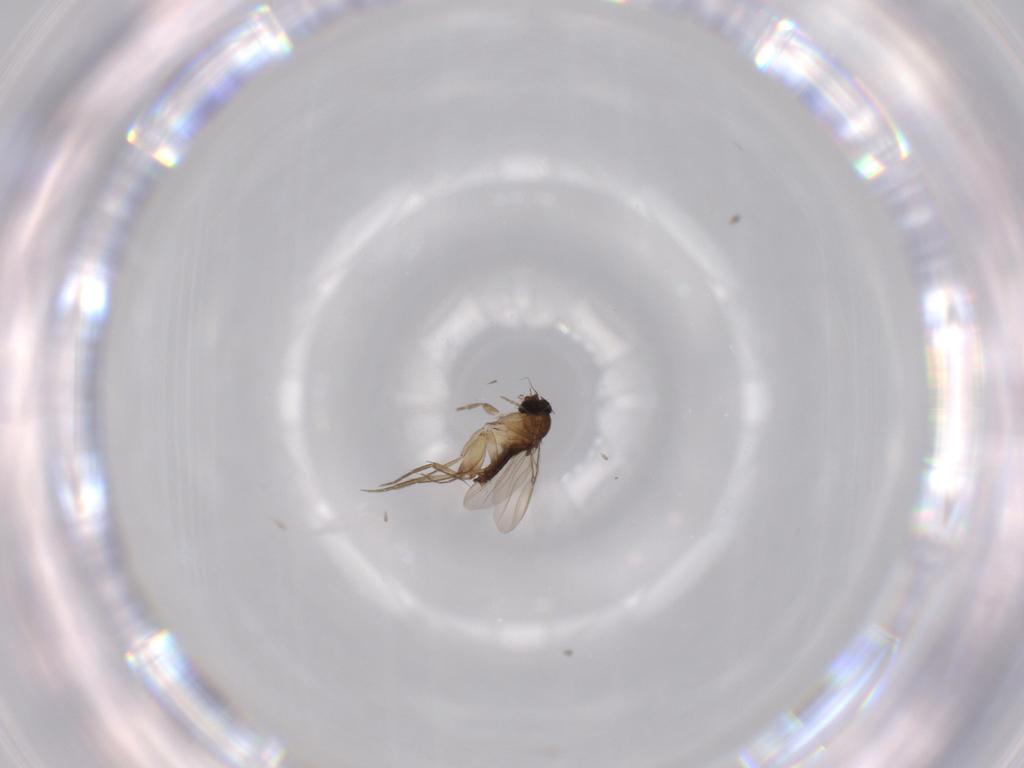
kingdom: Animalia
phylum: Arthropoda
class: Insecta
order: Diptera
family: Phoridae
